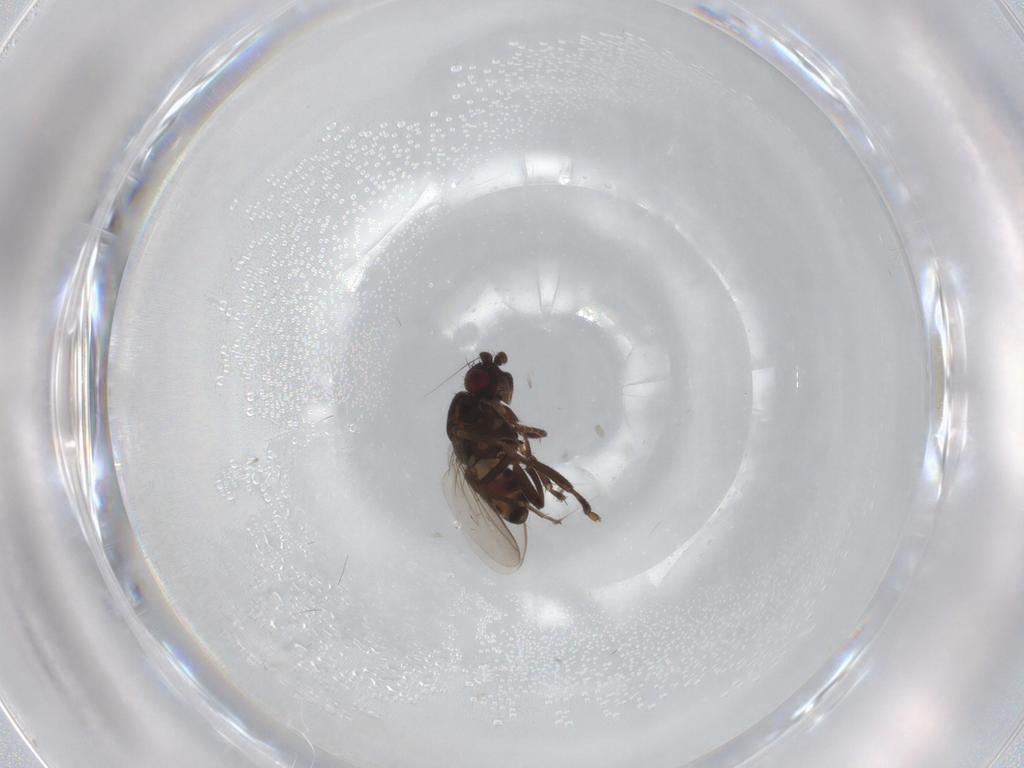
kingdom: Animalia
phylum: Arthropoda
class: Insecta
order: Diptera
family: Sphaeroceridae
